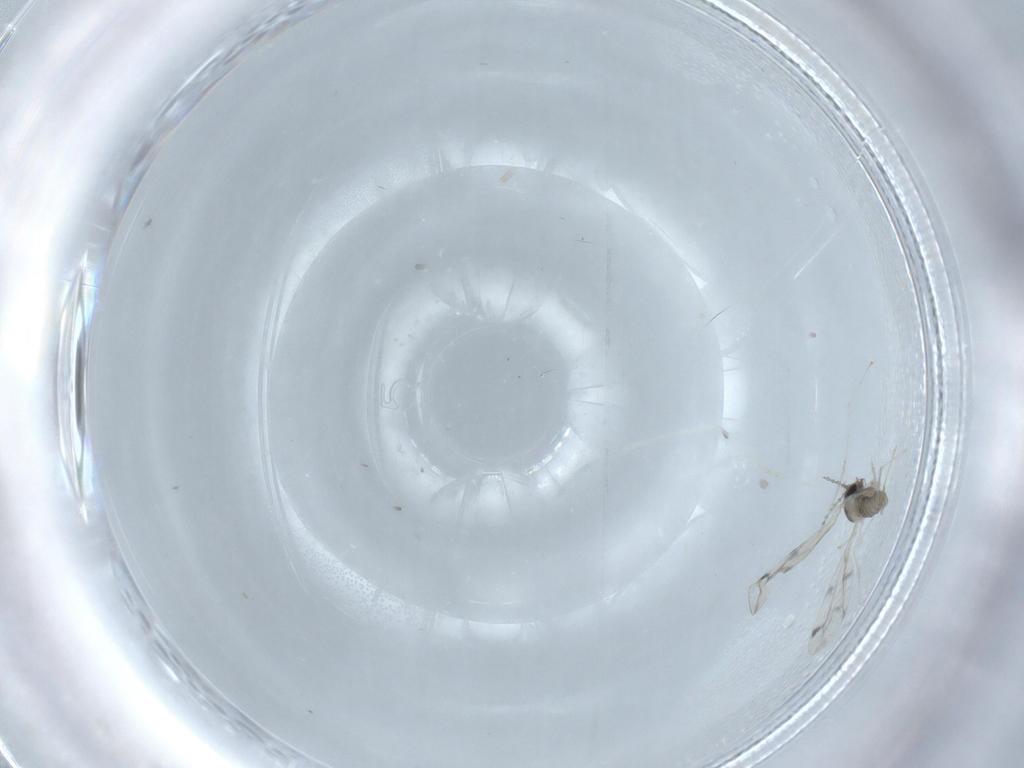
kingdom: Animalia
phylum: Arthropoda
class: Insecta
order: Diptera
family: Cecidomyiidae
